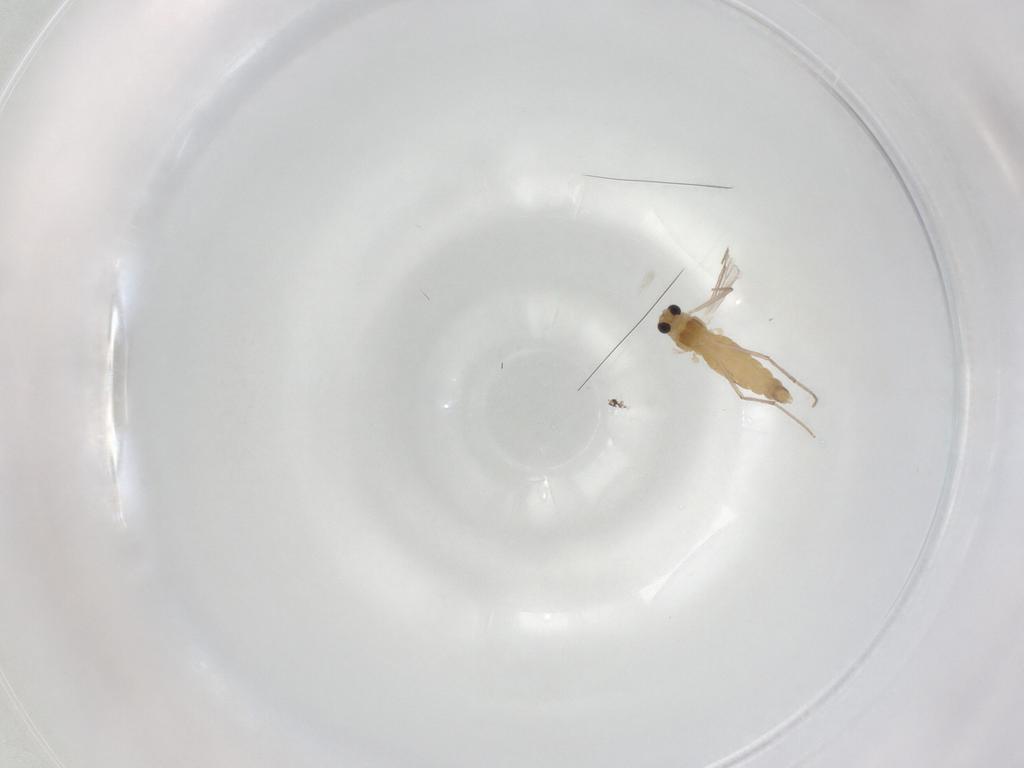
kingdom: Animalia
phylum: Arthropoda
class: Insecta
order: Diptera
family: Chironomidae
